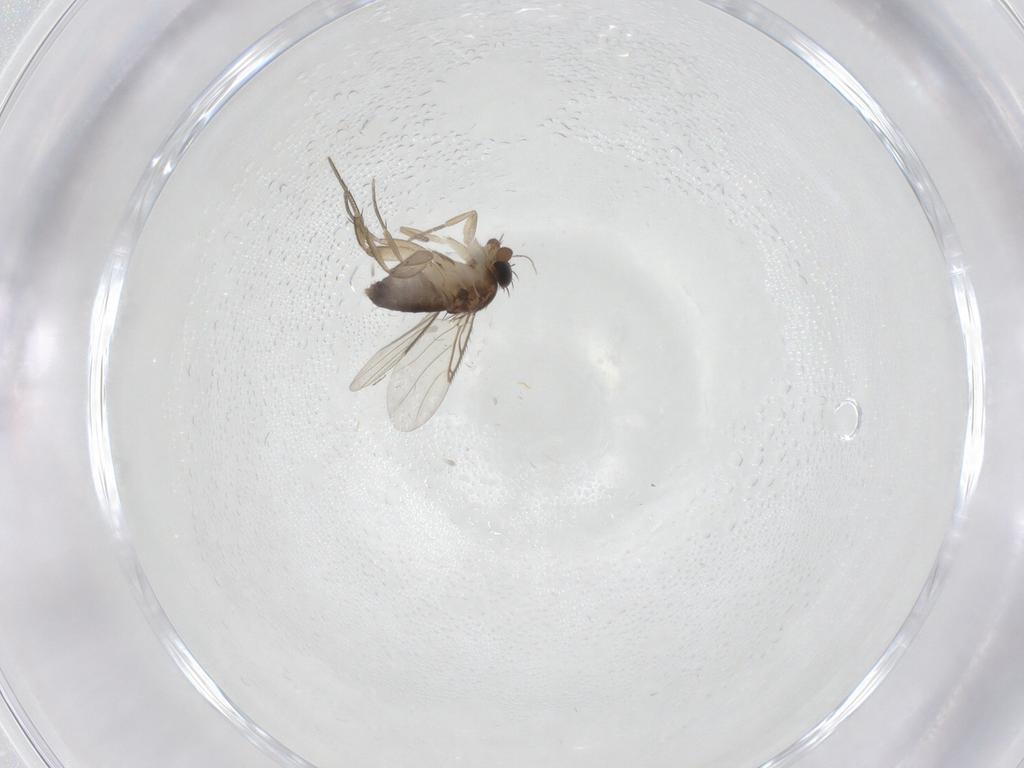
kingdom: Animalia
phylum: Arthropoda
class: Insecta
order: Diptera
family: Phoridae
